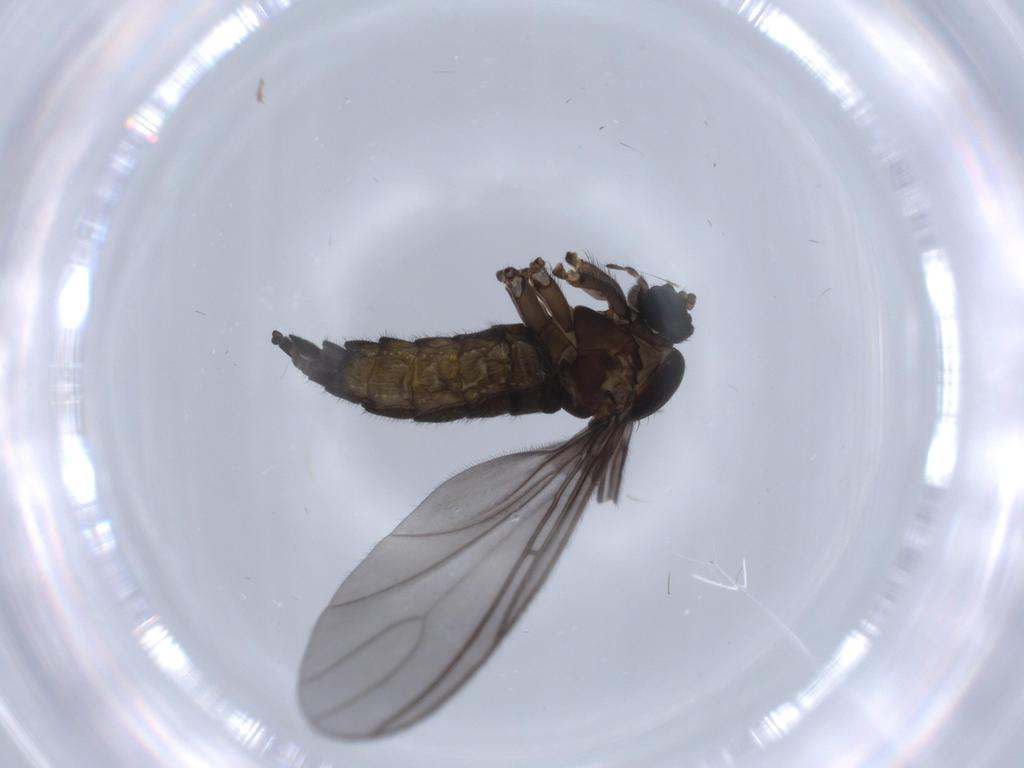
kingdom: Animalia
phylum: Arthropoda
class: Insecta
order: Diptera
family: Sciaridae
